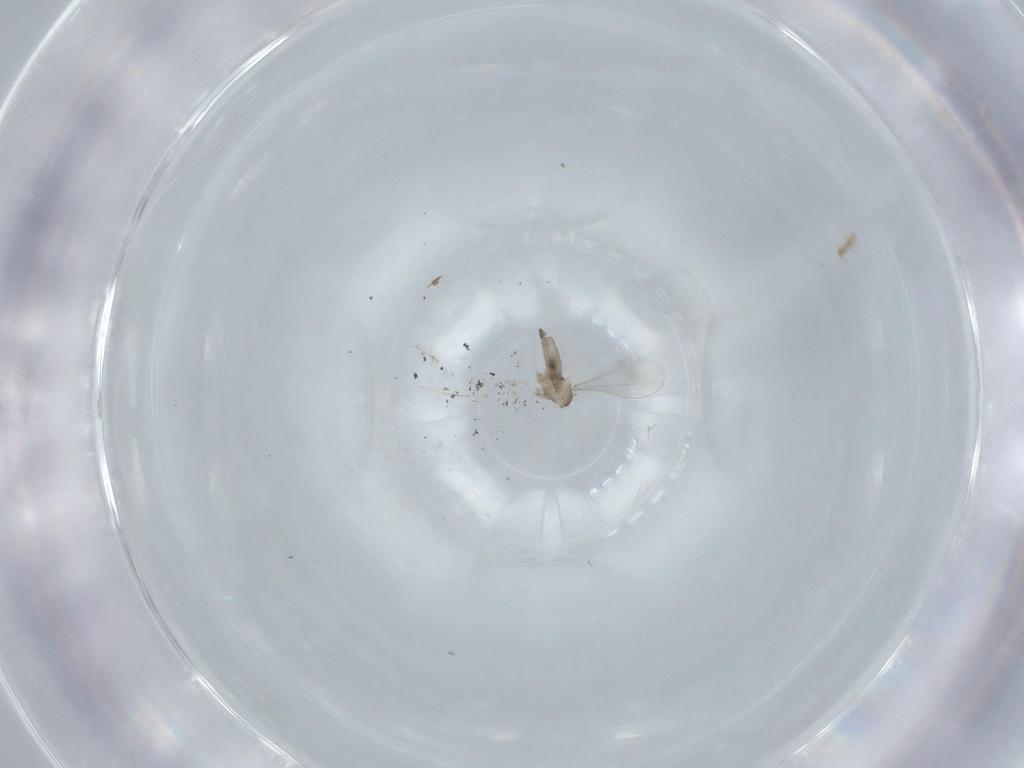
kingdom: Animalia
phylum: Arthropoda
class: Insecta
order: Diptera
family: Cecidomyiidae
